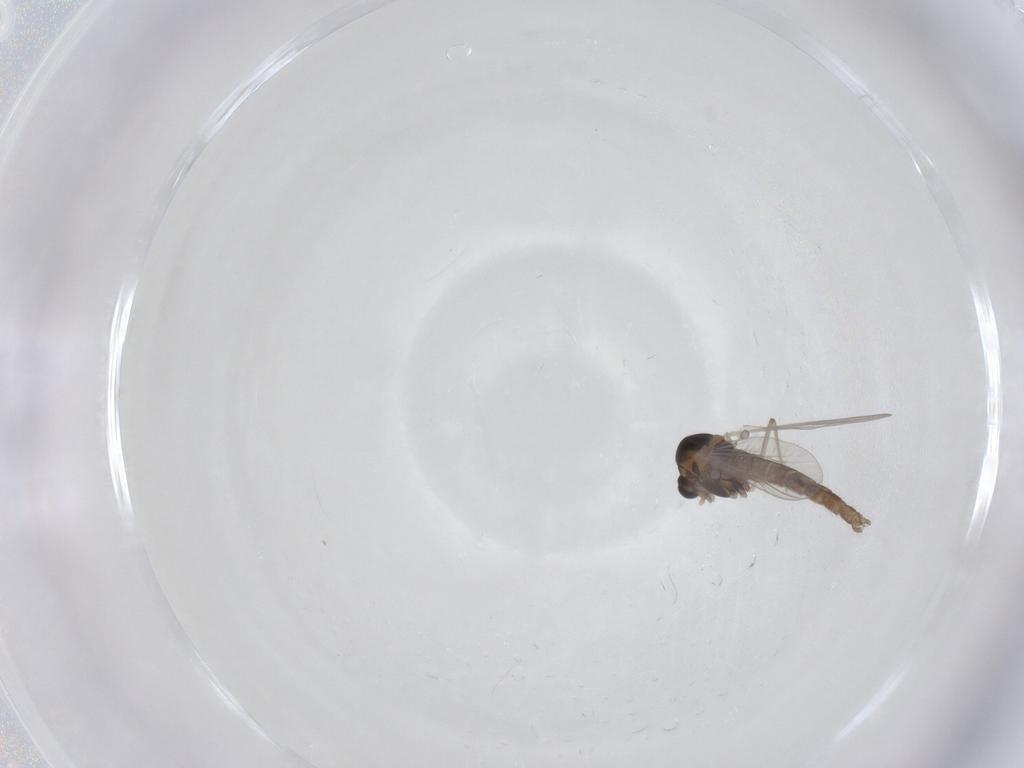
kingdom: Animalia
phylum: Arthropoda
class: Insecta
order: Diptera
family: Chironomidae
